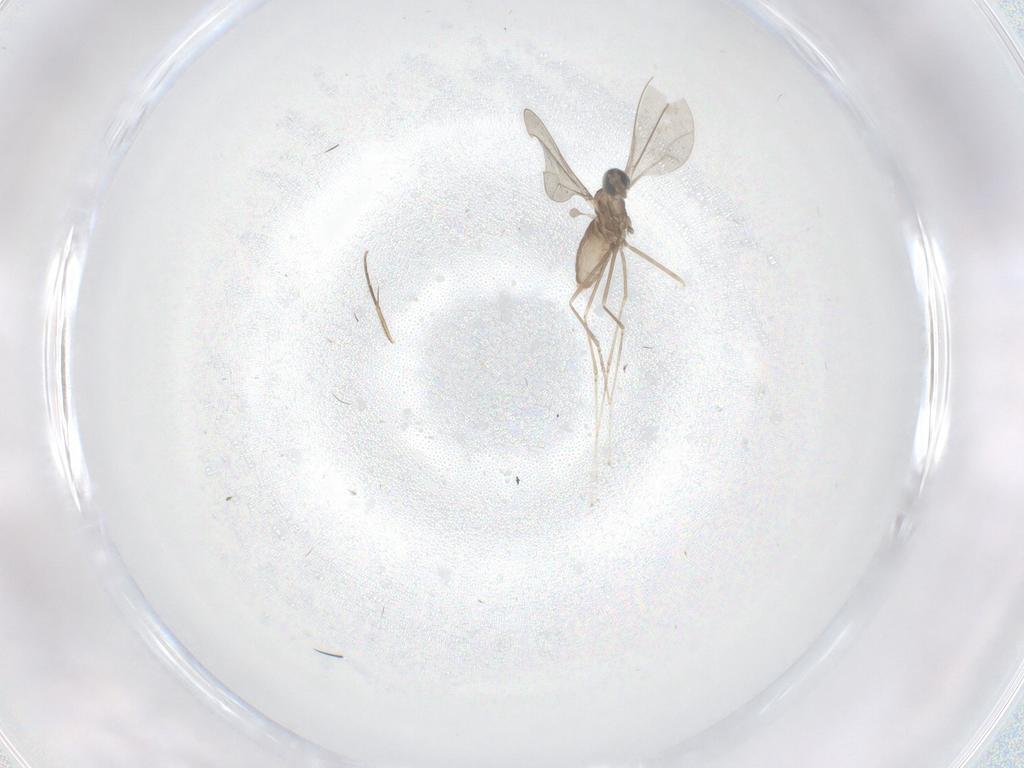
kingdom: Animalia
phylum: Arthropoda
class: Insecta
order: Diptera
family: Cecidomyiidae
